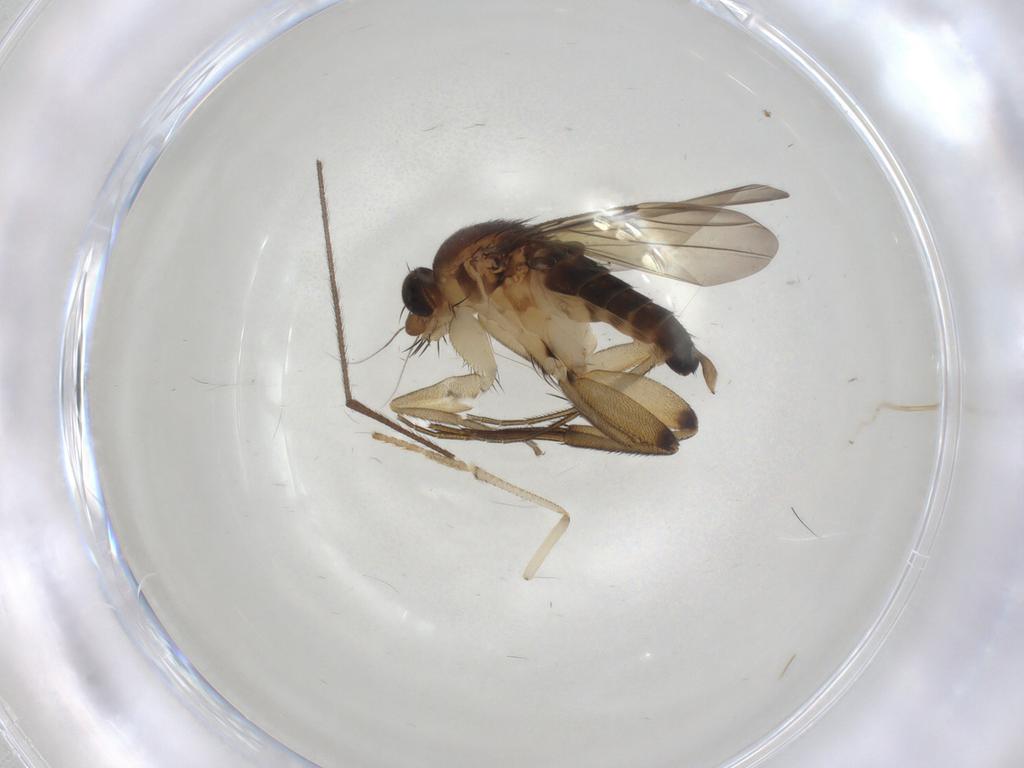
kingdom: Animalia
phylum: Arthropoda
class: Insecta
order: Diptera
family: Phoridae
